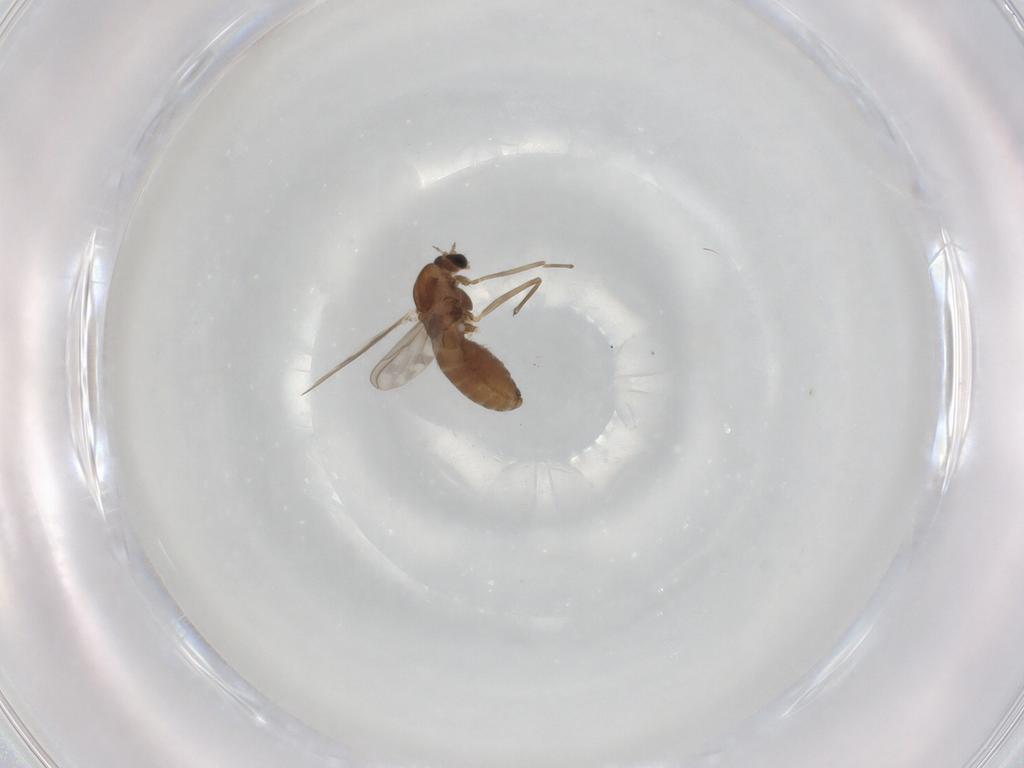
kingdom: Animalia
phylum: Arthropoda
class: Insecta
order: Diptera
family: Chironomidae
